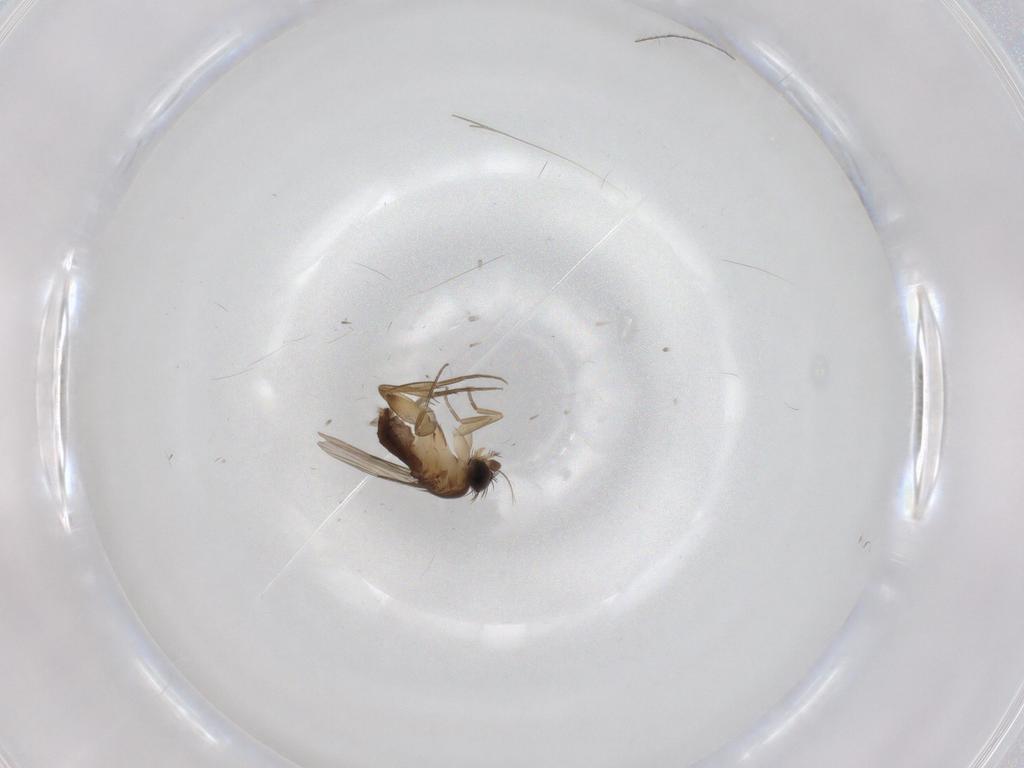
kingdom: Animalia
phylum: Arthropoda
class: Insecta
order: Diptera
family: Phoridae
